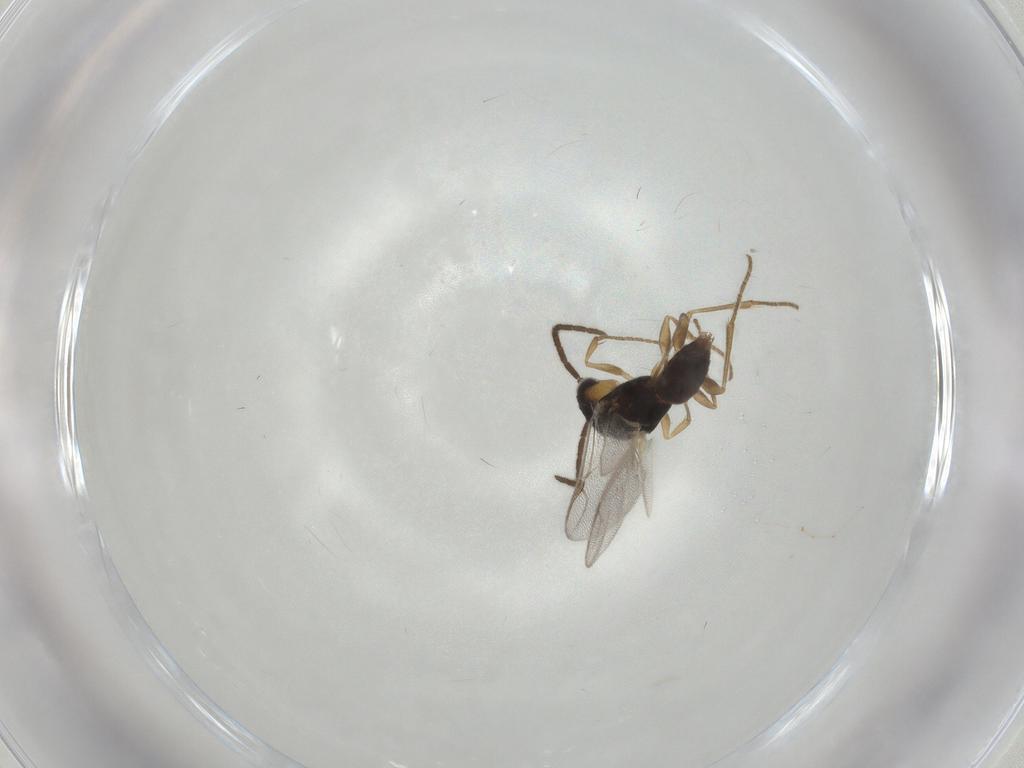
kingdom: Animalia
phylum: Arthropoda
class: Insecta
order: Hymenoptera
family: Dryinidae
